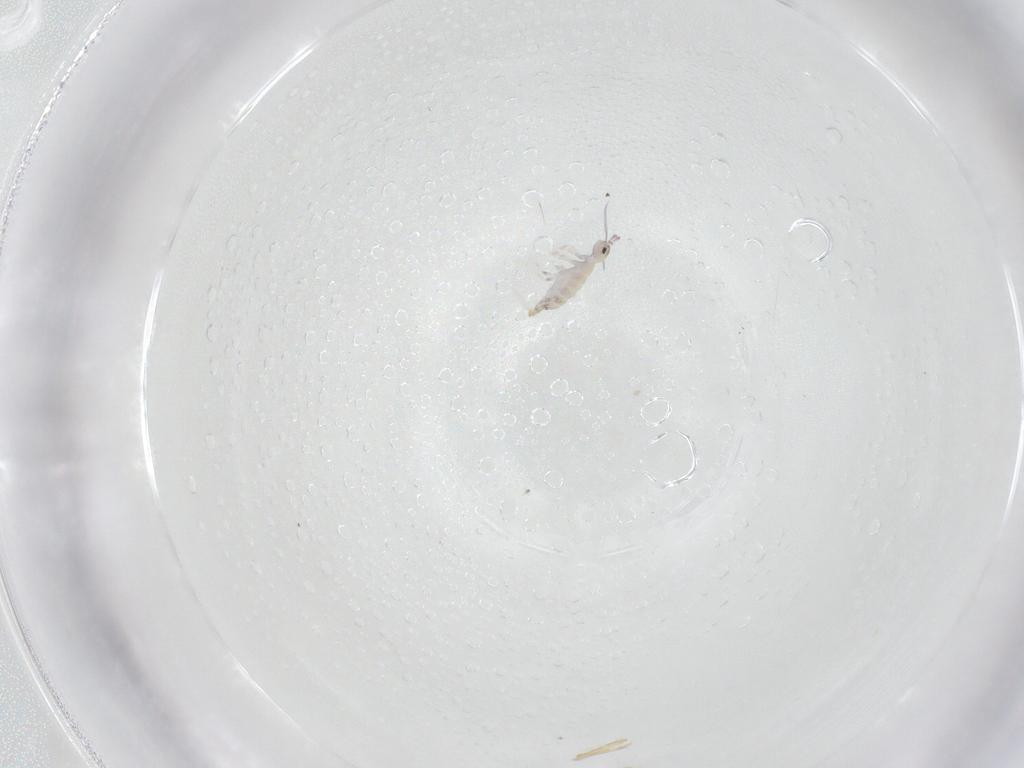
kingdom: Animalia
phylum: Arthropoda
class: Collembola
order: Entomobryomorpha
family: Entomobryidae
